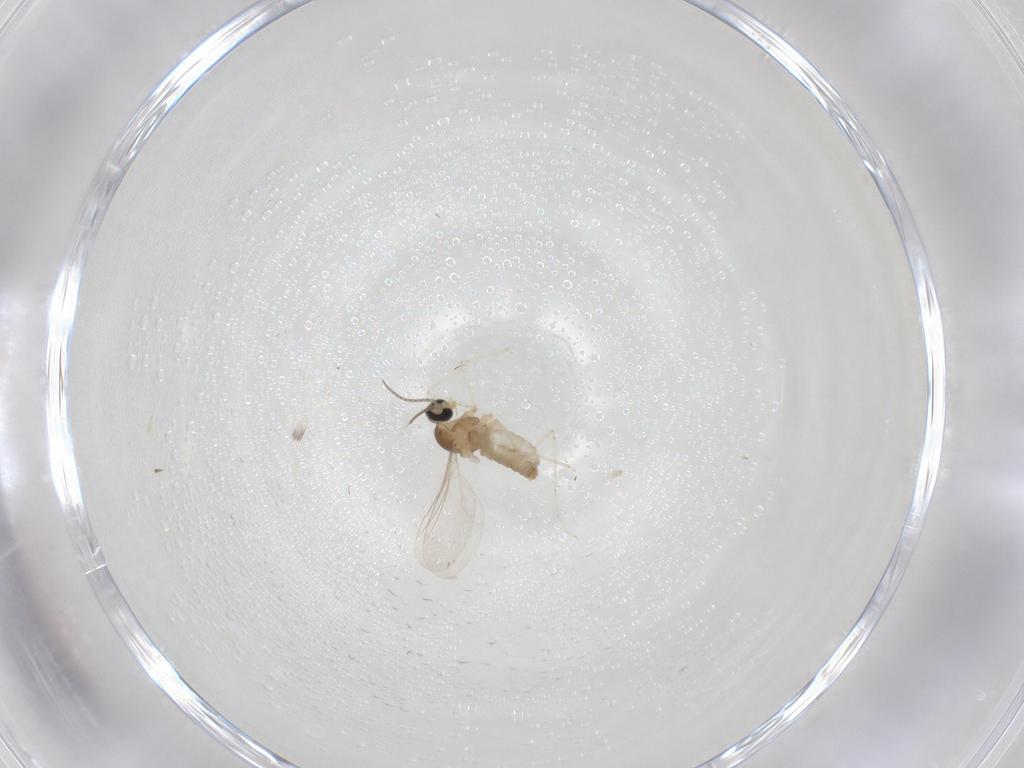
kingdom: Animalia
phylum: Arthropoda
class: Insecta
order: Diptera
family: Cecidomyiidae
